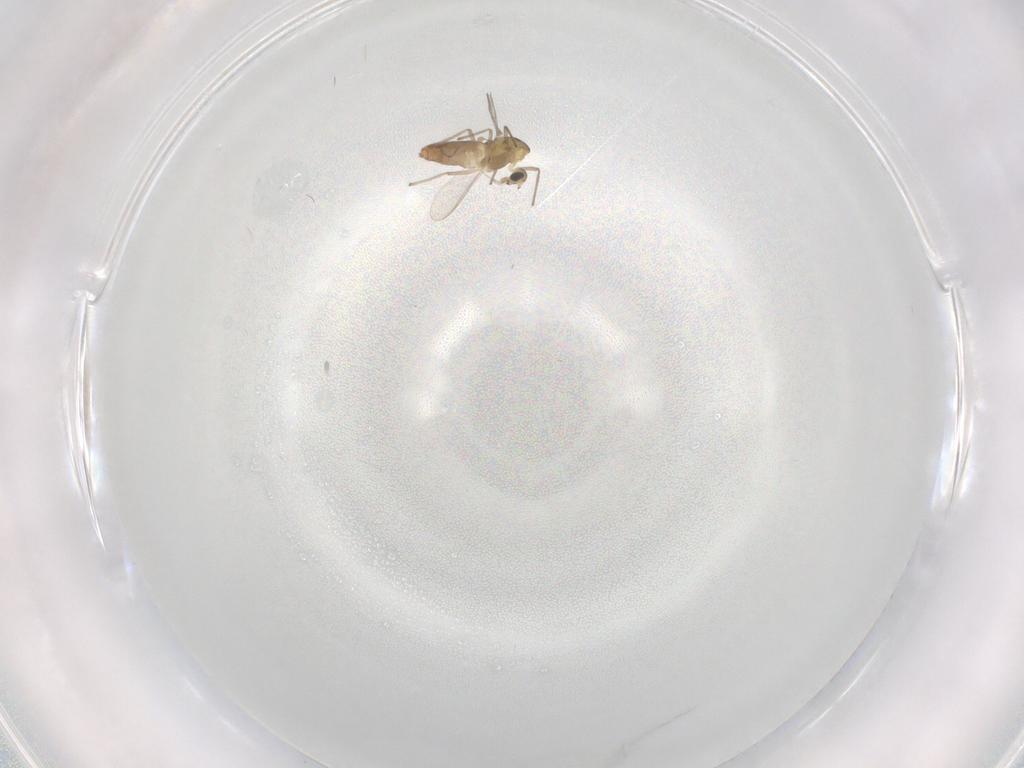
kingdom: Animalia
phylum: Arthropoda
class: Insecta
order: Diptera
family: Chironomidae
